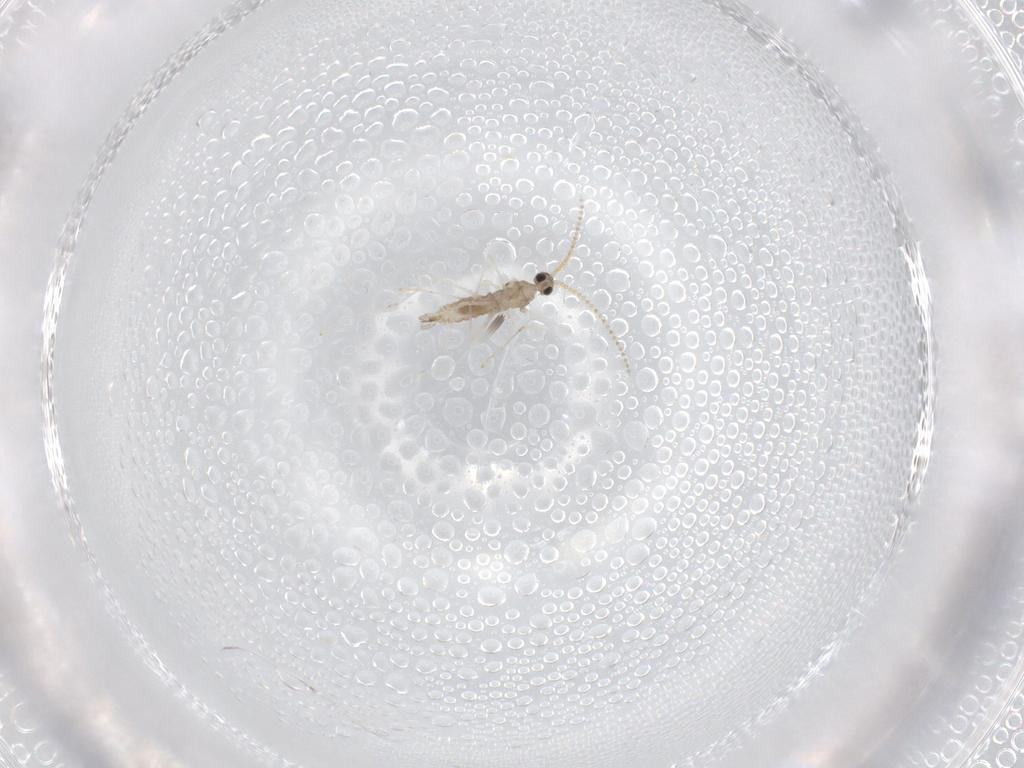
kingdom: Animalia
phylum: Arthropoda
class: Insecta
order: Diptera
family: Cecidomyiidae
